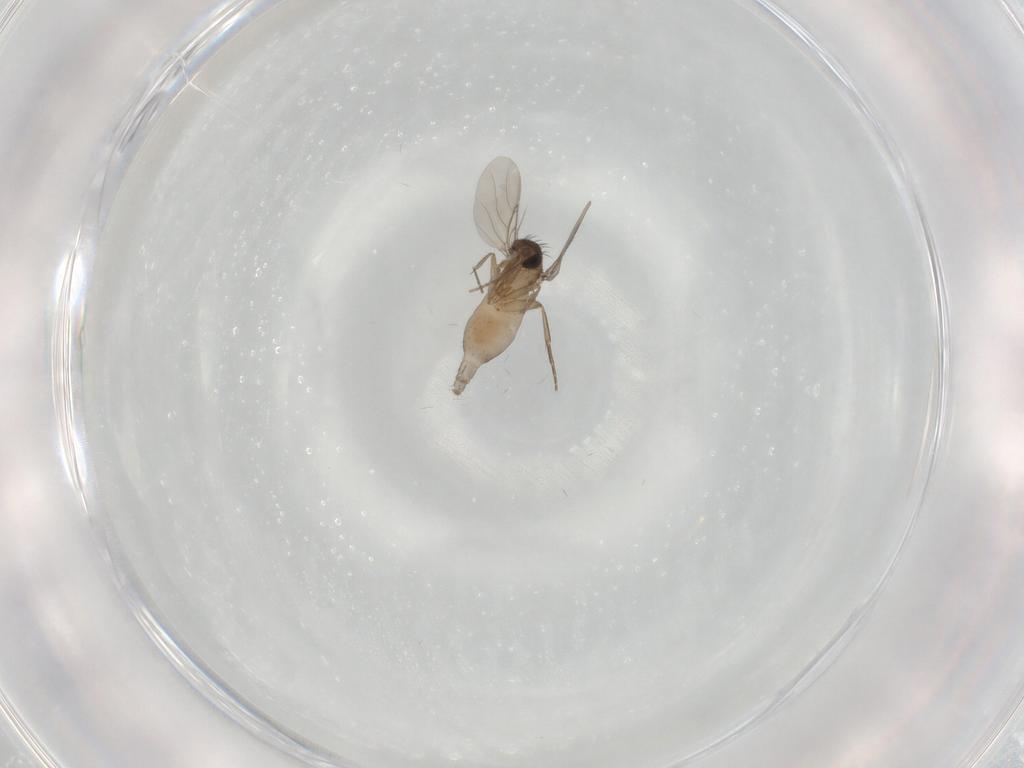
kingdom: Animalia
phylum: Arthropoda
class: Insecta
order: Diptera
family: Phoridae
